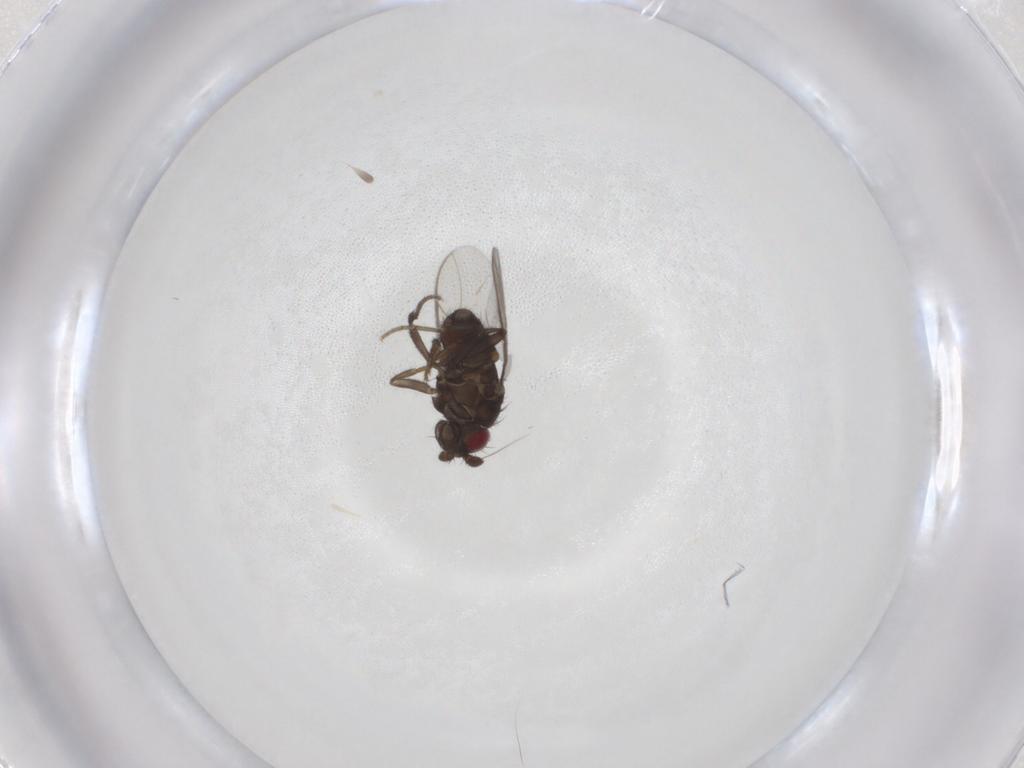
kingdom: Animalia
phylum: Arthropoda
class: Insecta
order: Diptera
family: Sphaeroceridae
